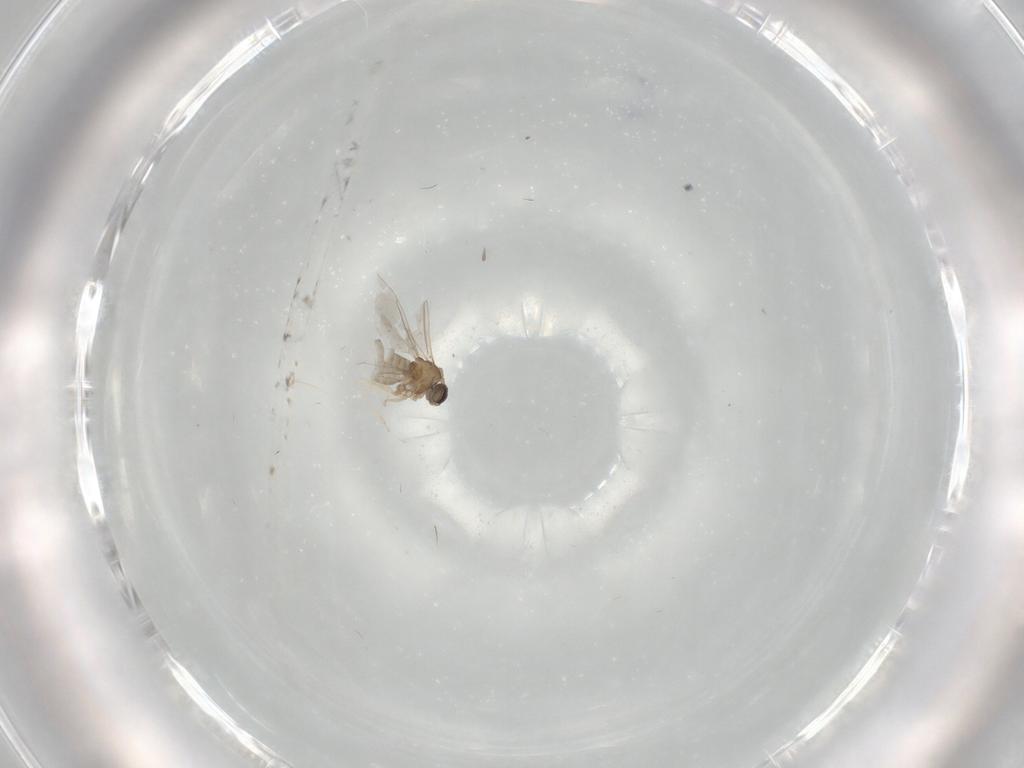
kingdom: Animalia
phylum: Arthropoda
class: Insecta
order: Diptera
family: Cecidomyiidae
